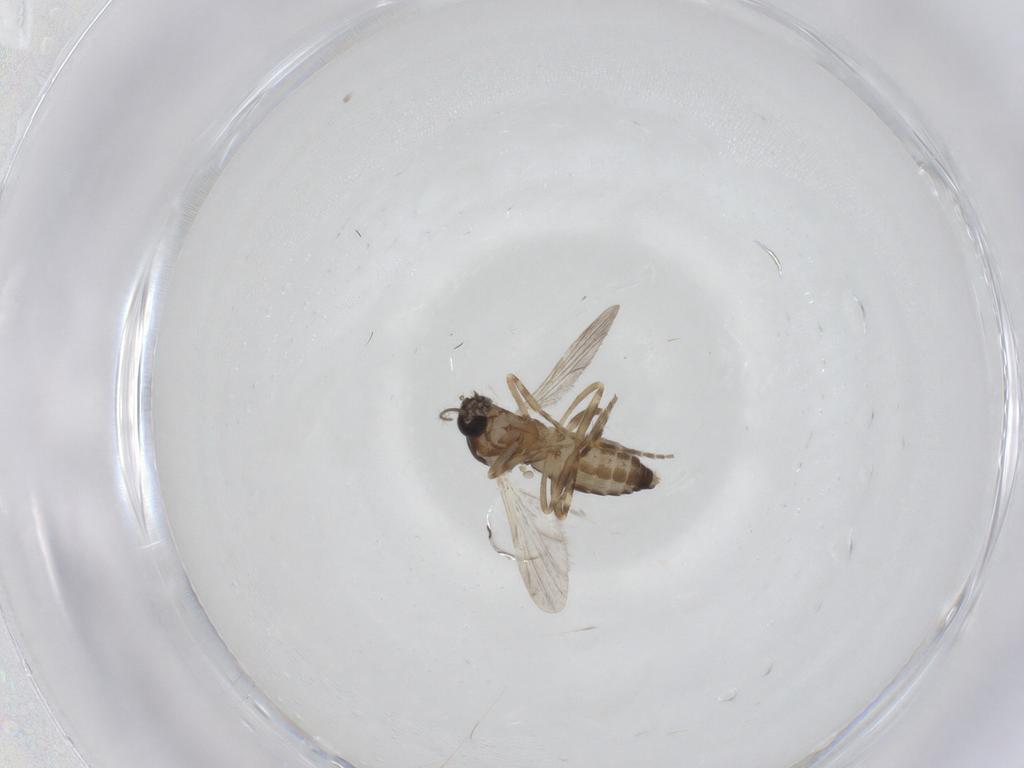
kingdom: Animalia
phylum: Arthropoda
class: Insecta
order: Diptera
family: Ceratopogonidae
